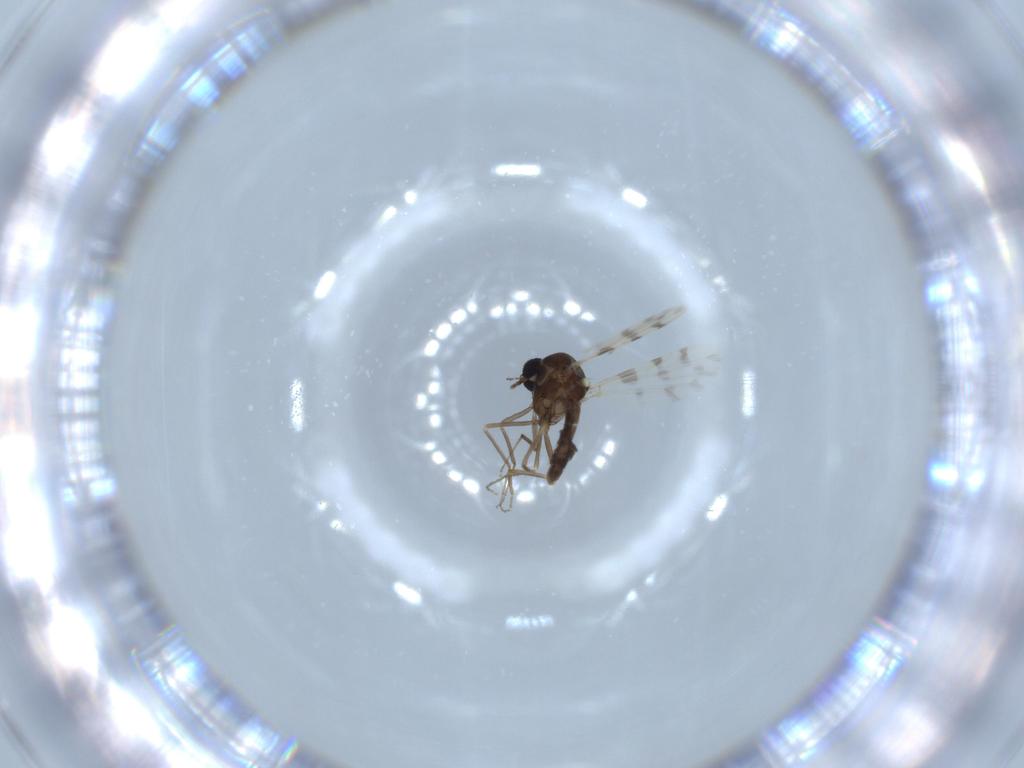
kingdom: Animalia
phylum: Arthropoda
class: Insecta
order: Diptera
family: Ceratopogonidae
